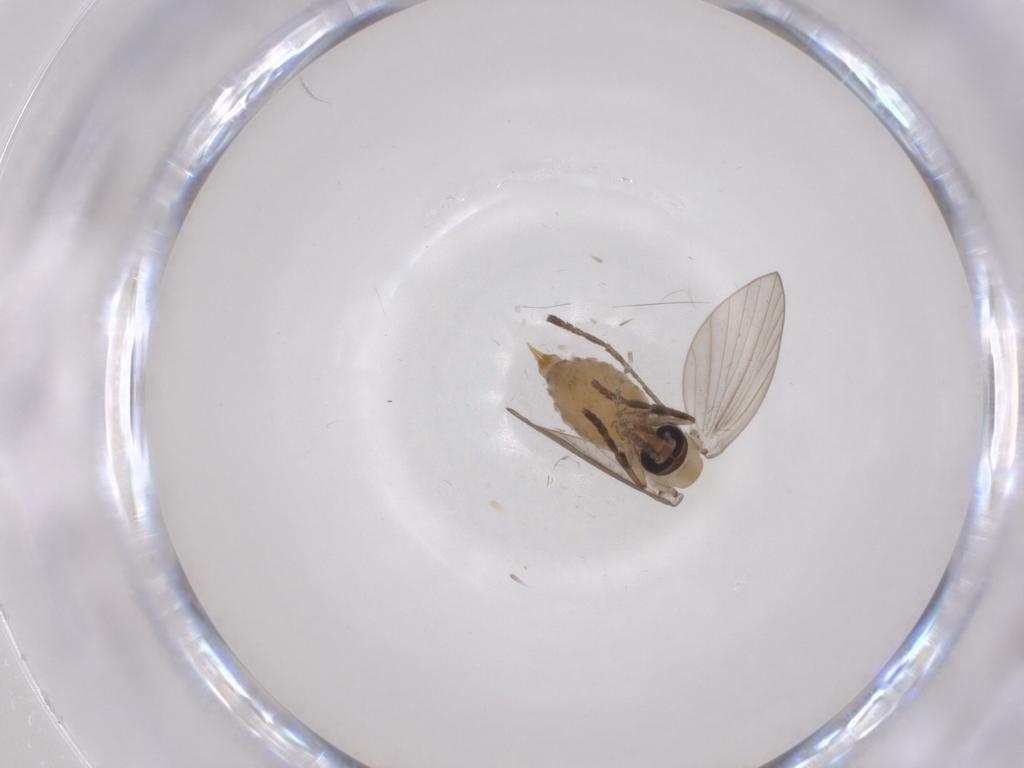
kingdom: Animalia
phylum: Arthropoda
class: Insecta
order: Diptera
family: Psychodidae
